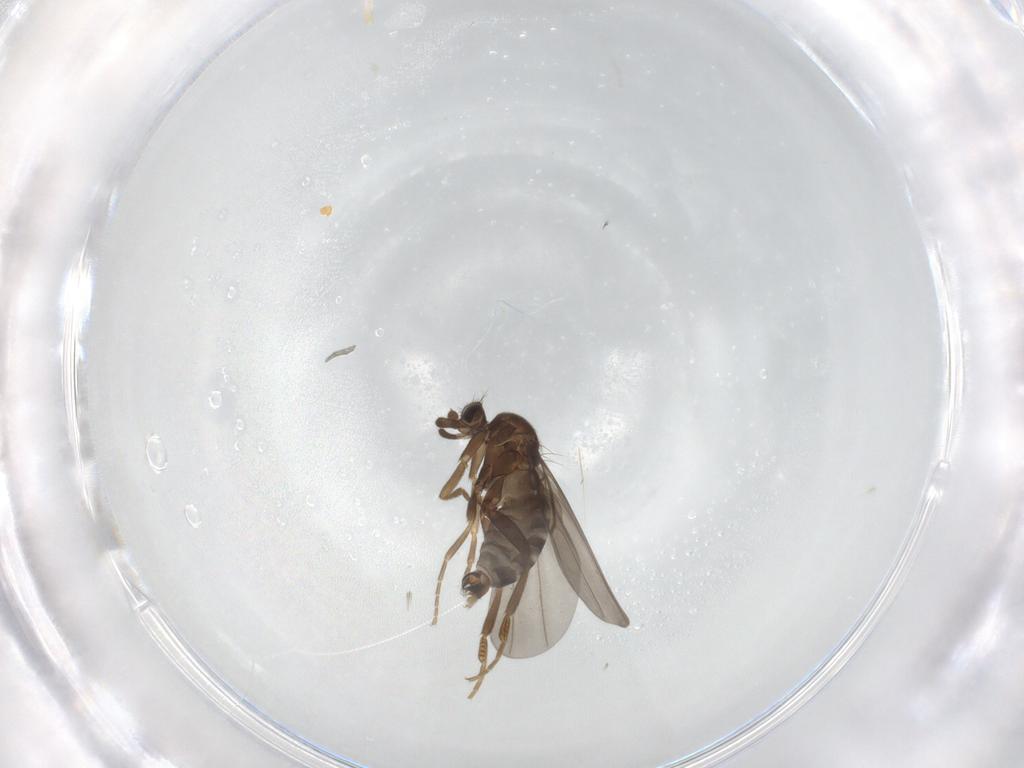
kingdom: Animalia
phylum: Arthropoda
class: Insecta
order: Diptera
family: Phoridae
